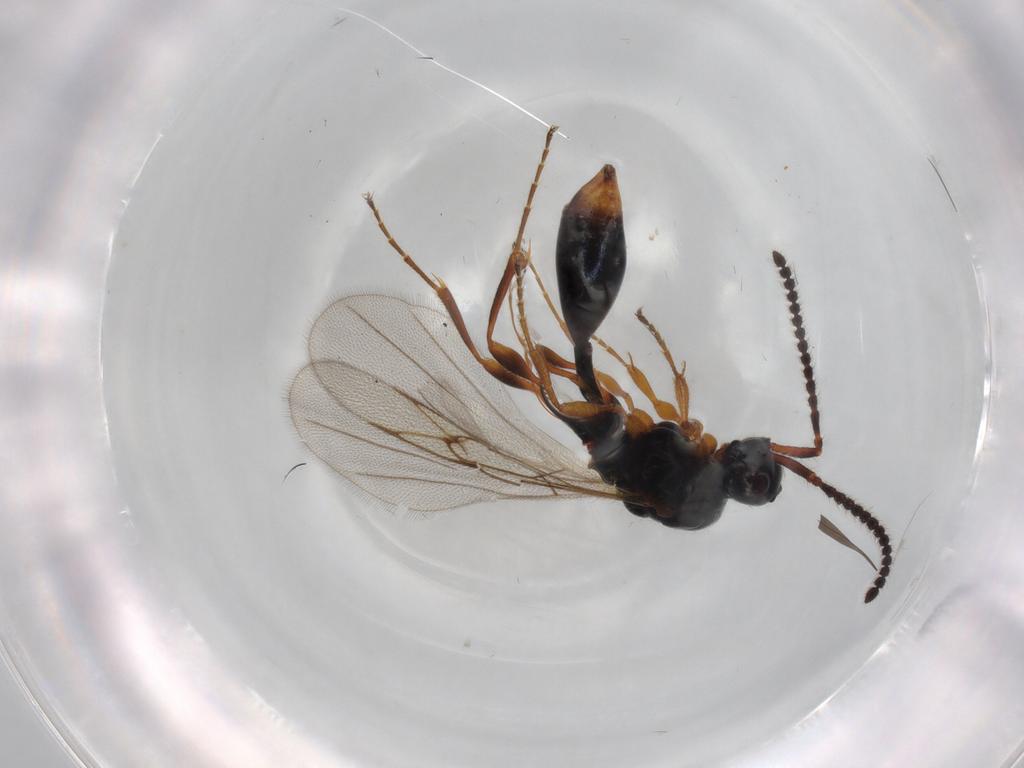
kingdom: Animalia
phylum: Arthropoda
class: Insecta
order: Hymenoptera
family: Diapriidae
